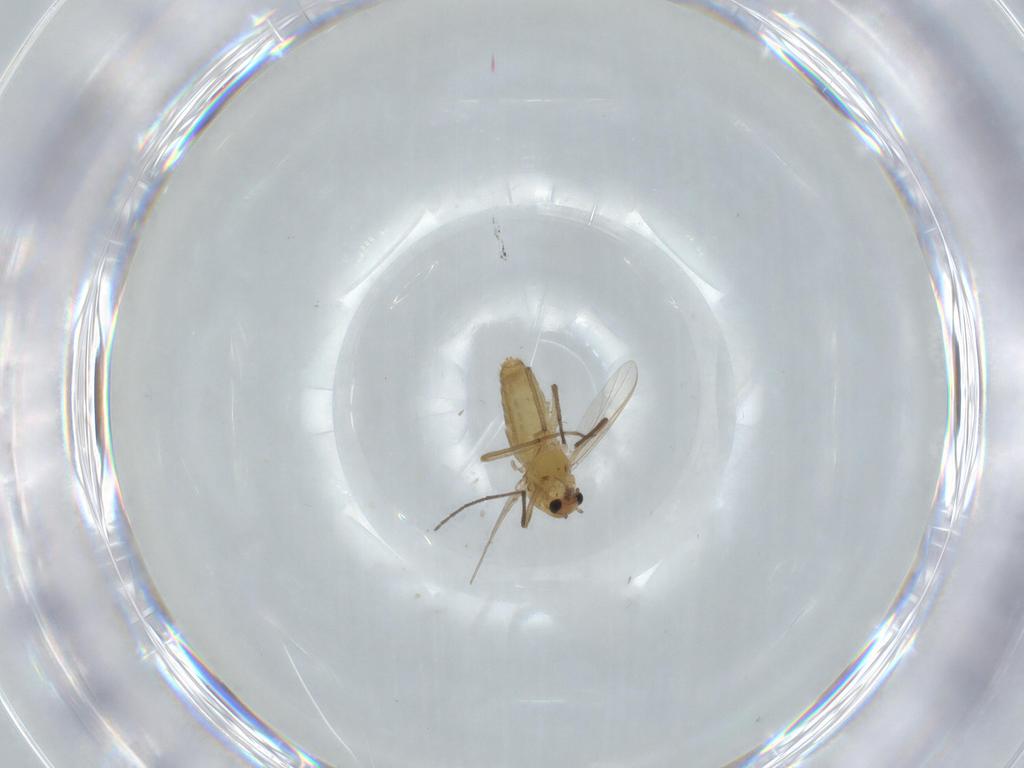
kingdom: Animalia
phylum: Arthropoda
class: Insecta
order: Diptera
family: Chironomidae
